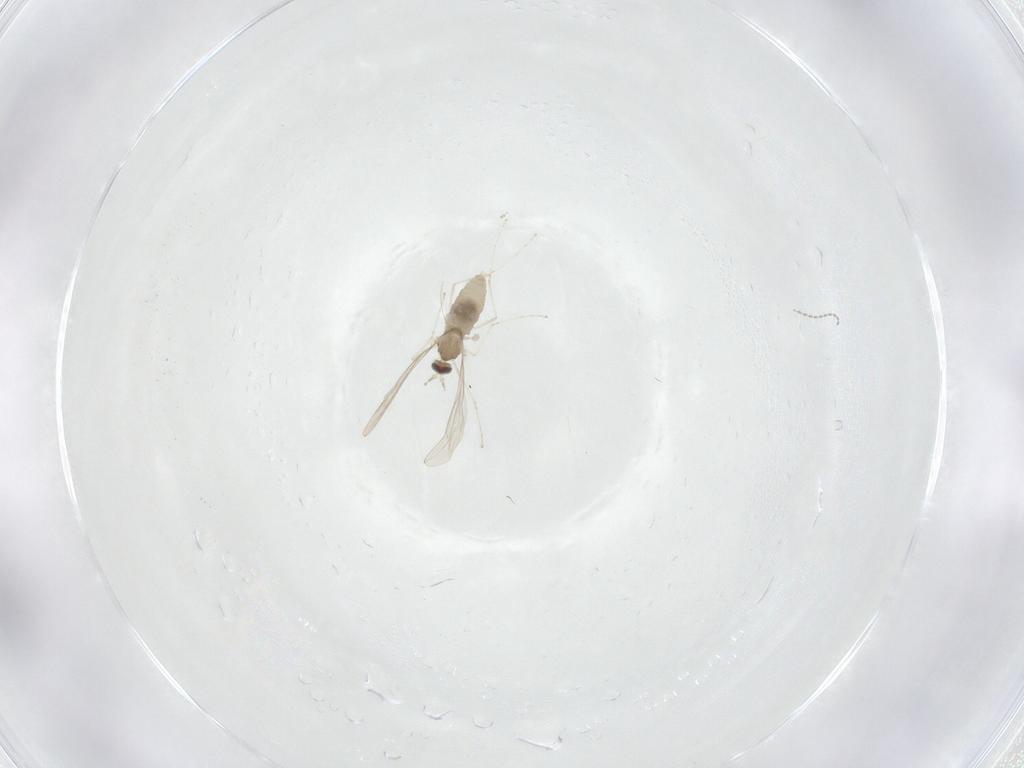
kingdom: Animalia
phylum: Arthropoda
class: Insecta
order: Diptera
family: Cecidomyiidae
